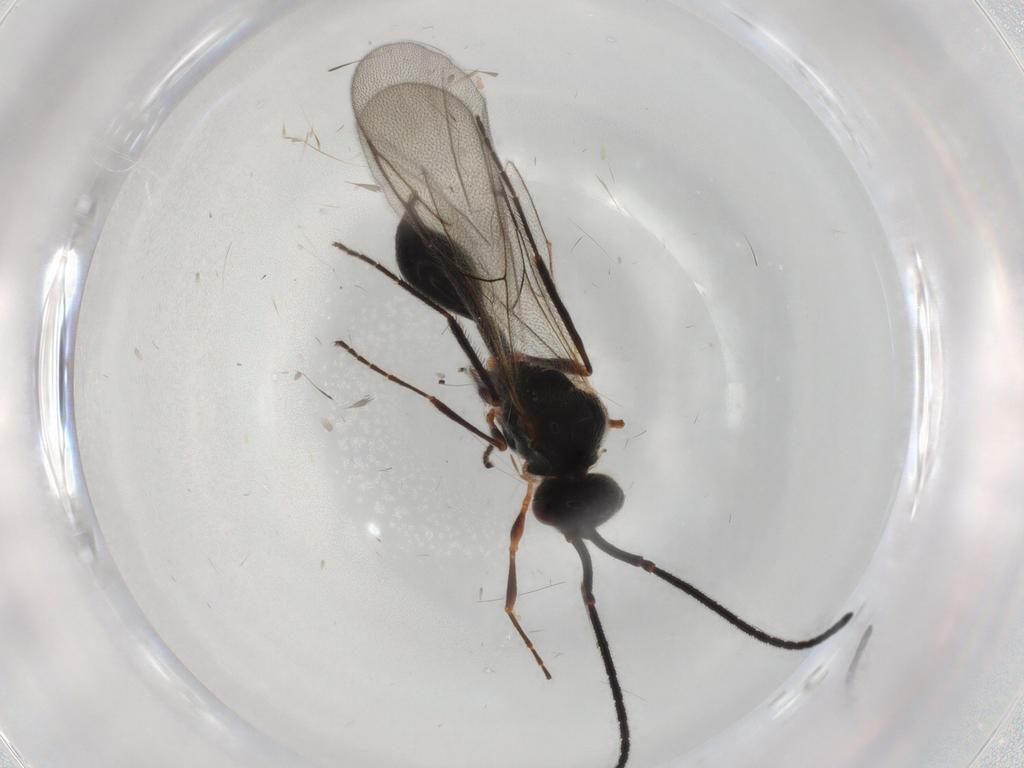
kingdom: Animalia
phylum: Arthropoda
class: Insecta
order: Hymenoptera
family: Diapriidae
